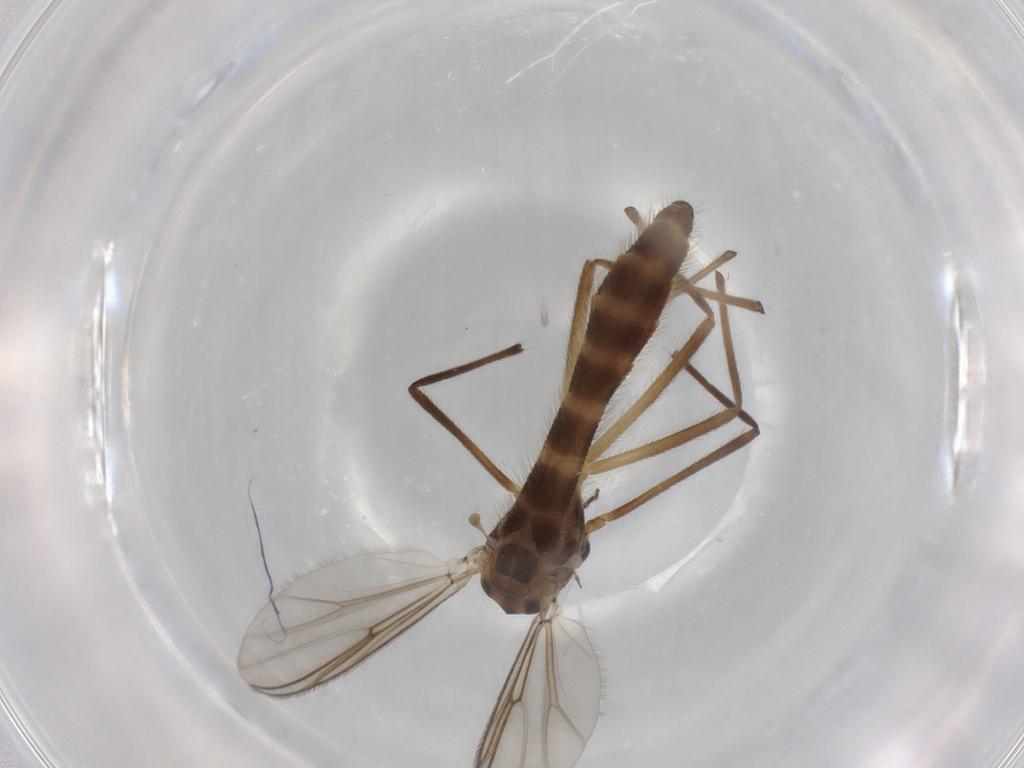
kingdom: Animalia
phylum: Arthropoda
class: Insecta
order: Diptera
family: Chironomidae
